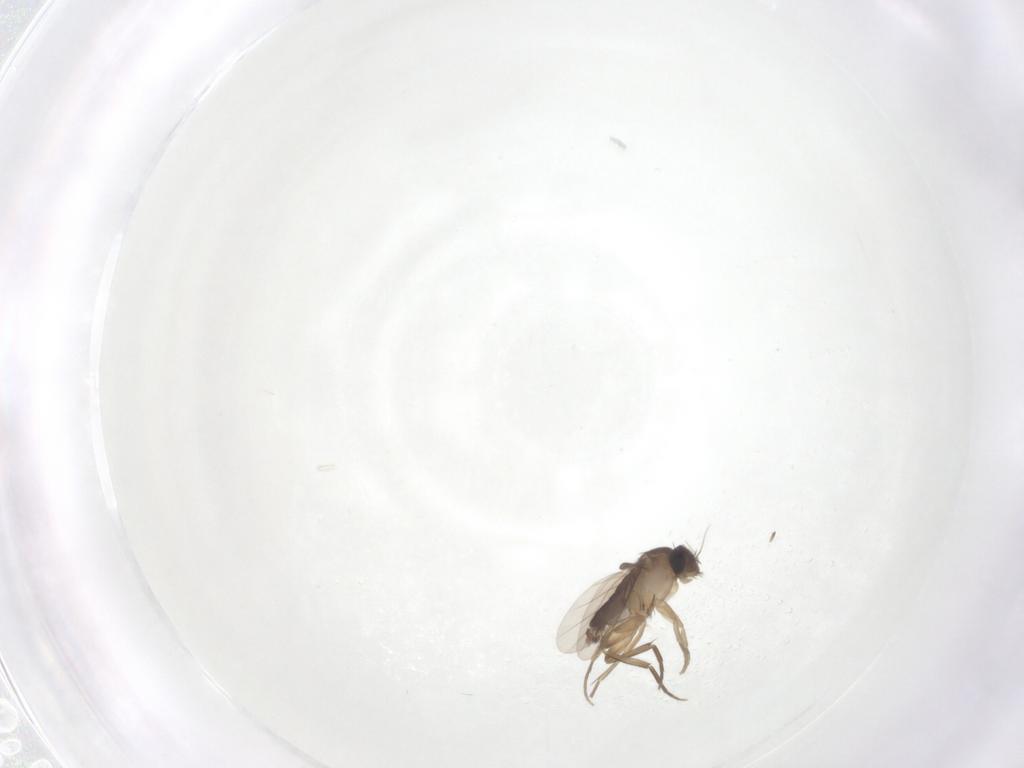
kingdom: Animalia
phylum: Arthropoda
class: Insecta
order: Diptera
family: Phoridae
